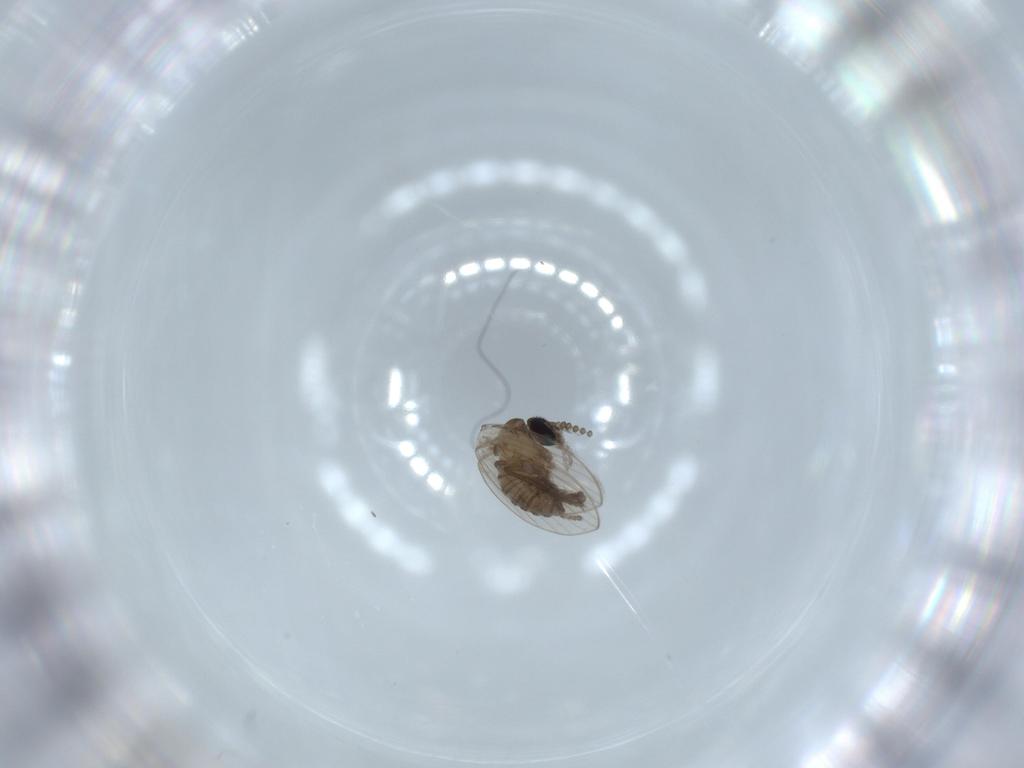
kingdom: Animalia
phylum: Arthropoda
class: Insecta
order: Diptera
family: Psychodidae
